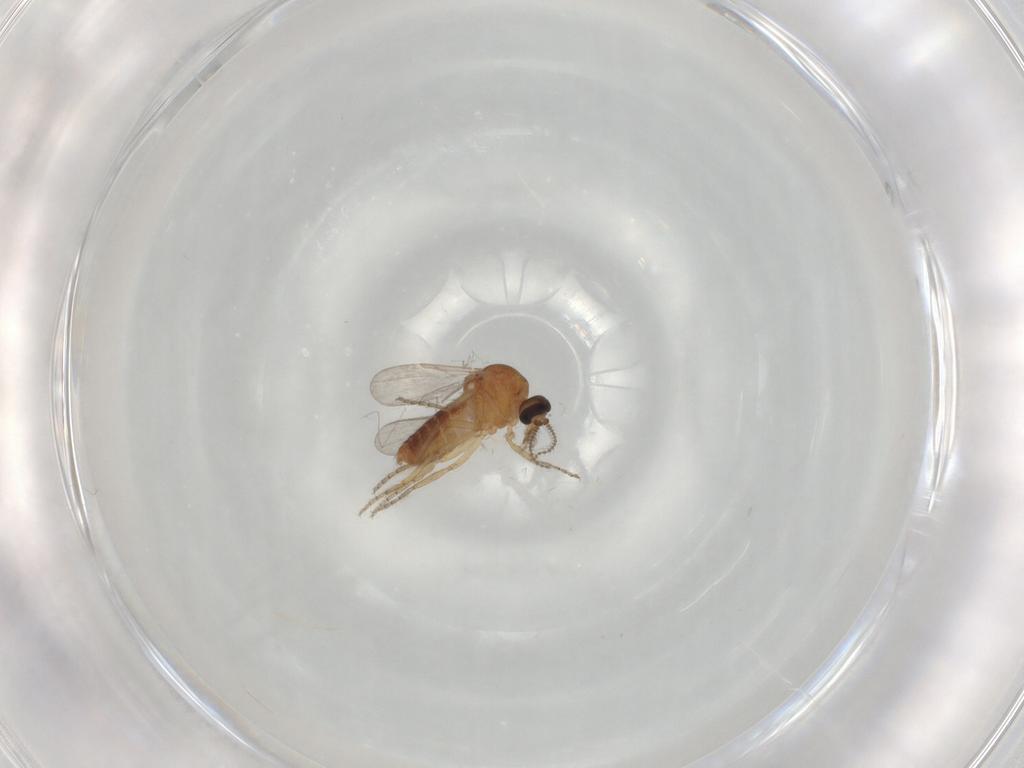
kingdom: Animalia
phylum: Arthropoda
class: Insecta
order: Diptera
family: Ceratopogonidae
